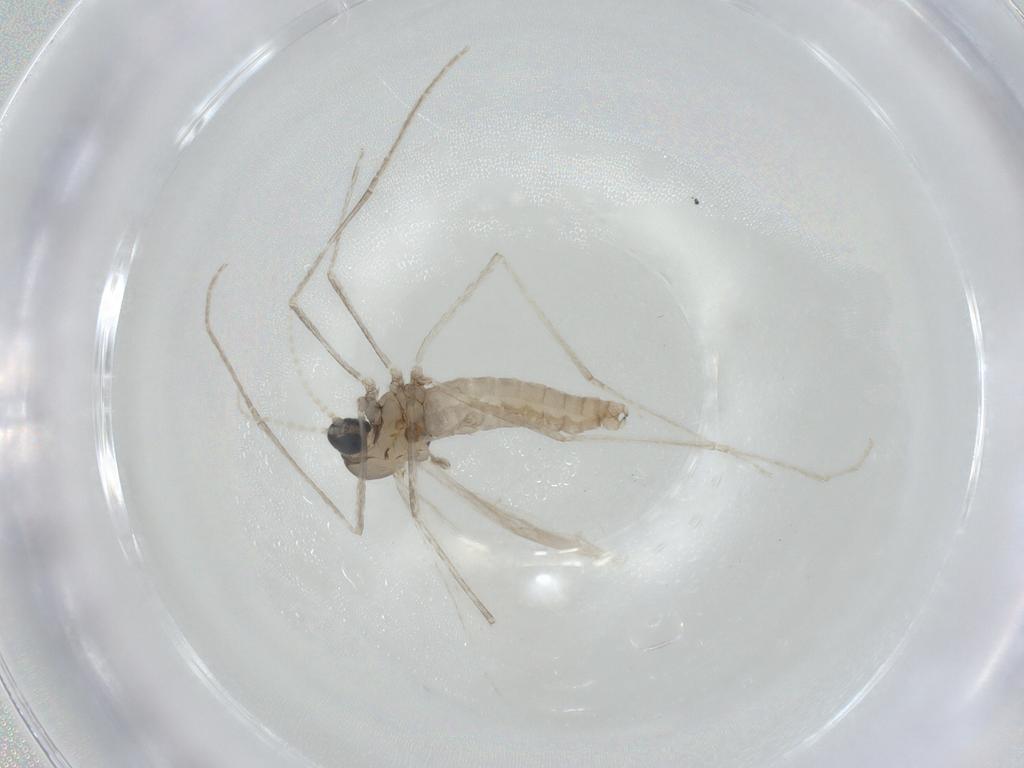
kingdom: Animalia
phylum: Arthropoda
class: Insecta
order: Diptera
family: Cecidomyiidae
